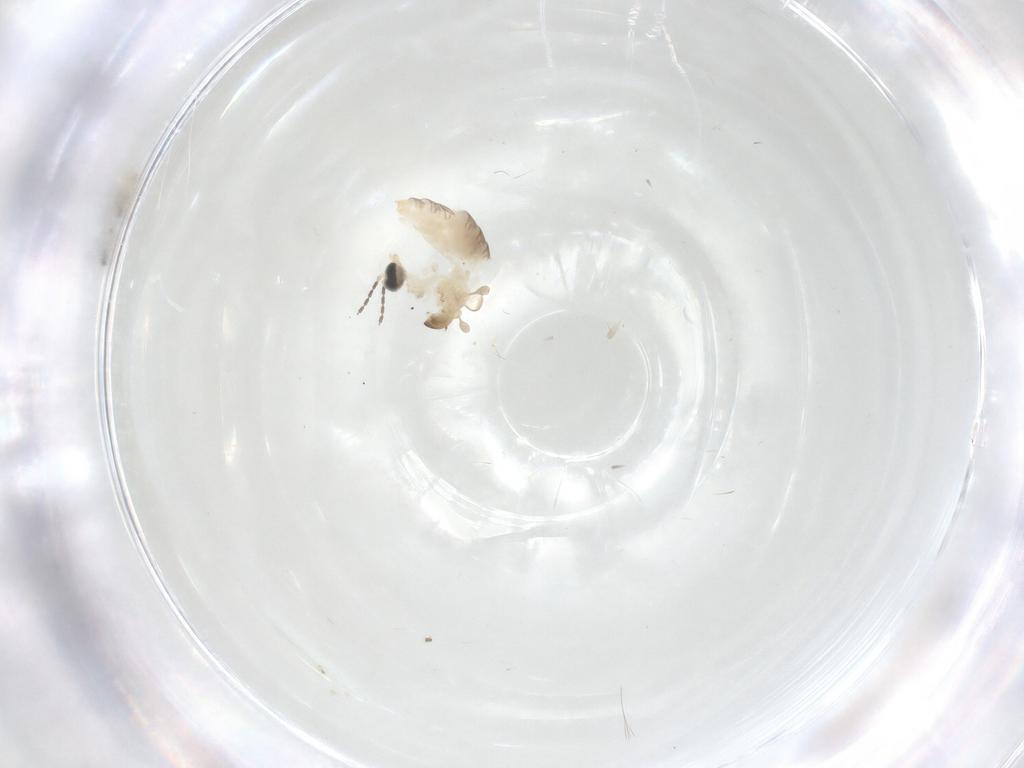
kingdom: Animalia
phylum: Arthropoda
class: Insecta
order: Diptera
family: Cecidomyiidae
